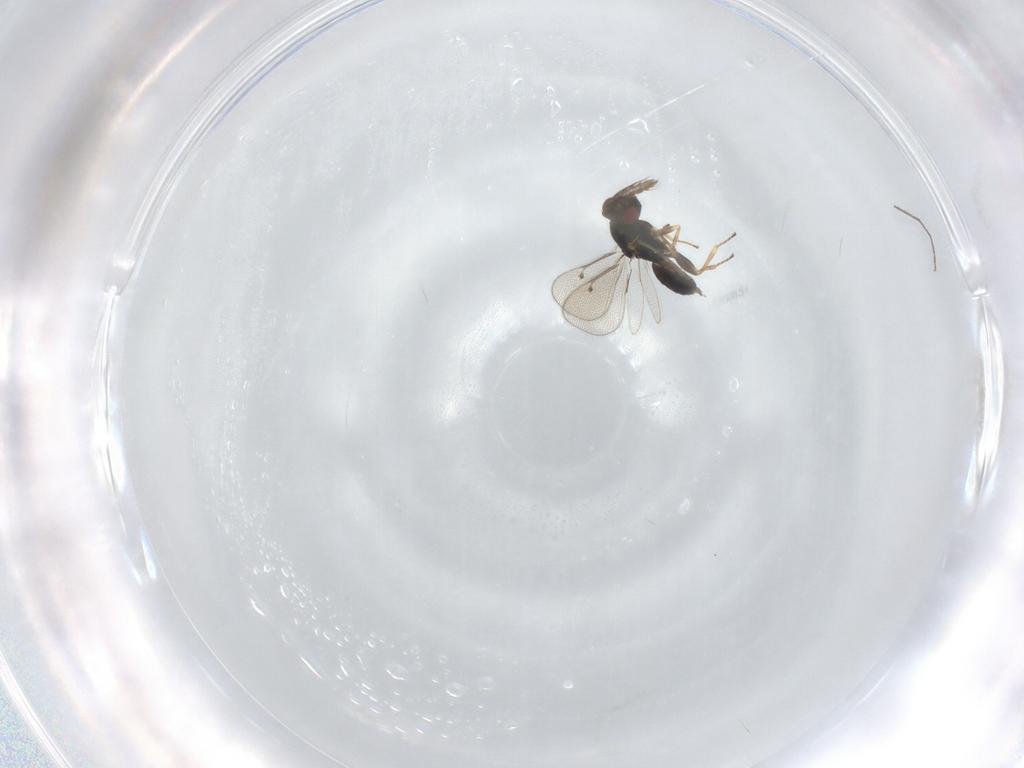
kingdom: Animalia
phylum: Arthropoda
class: Insecta
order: Hymenoptera
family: Eulophidae
